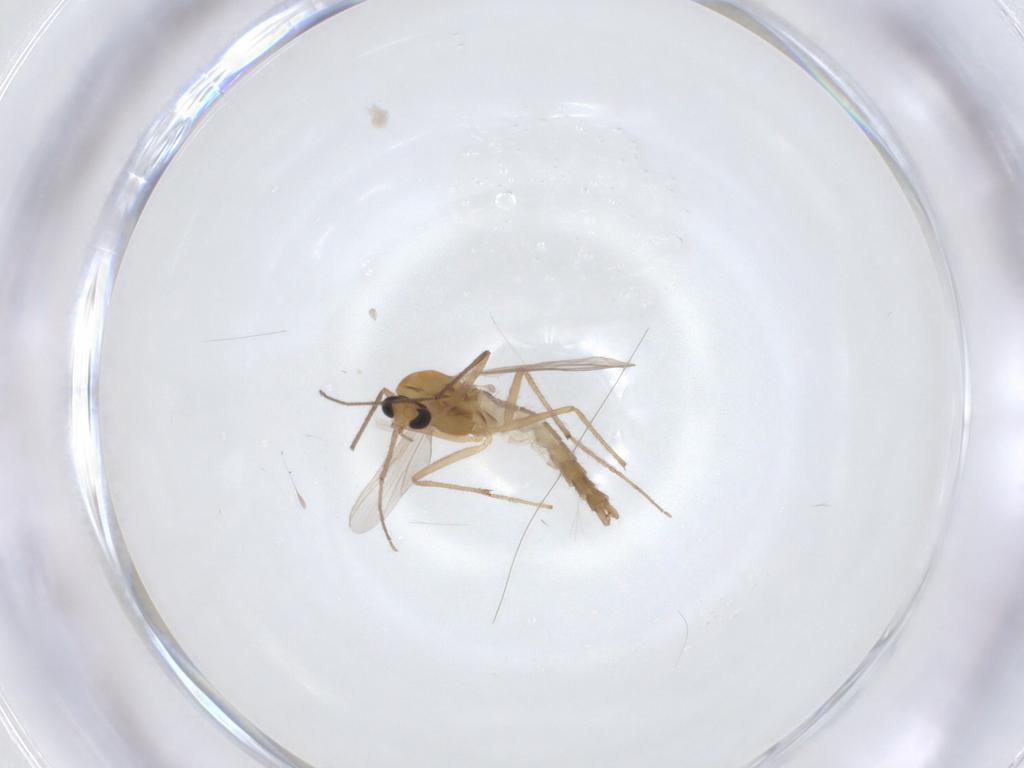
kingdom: Animalia
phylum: Arthropoda
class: Insecta
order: Diptera
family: Chironomidae
